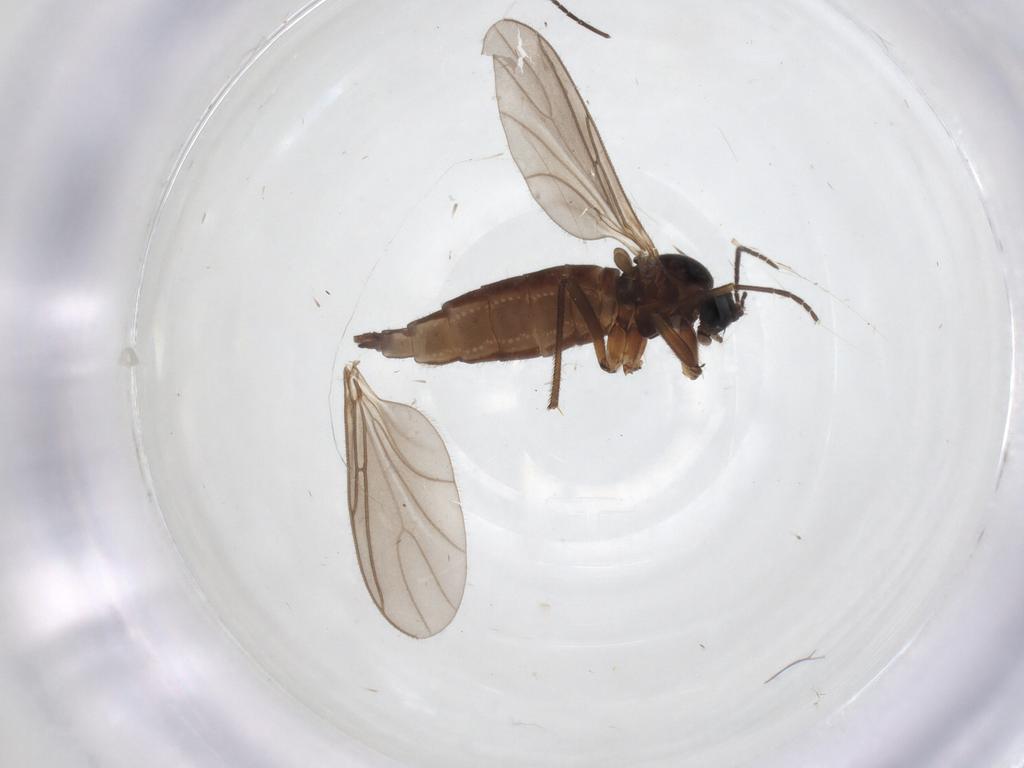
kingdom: Animalia
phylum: Arthropoda
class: Insecta
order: Diptera
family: Sciaridae
